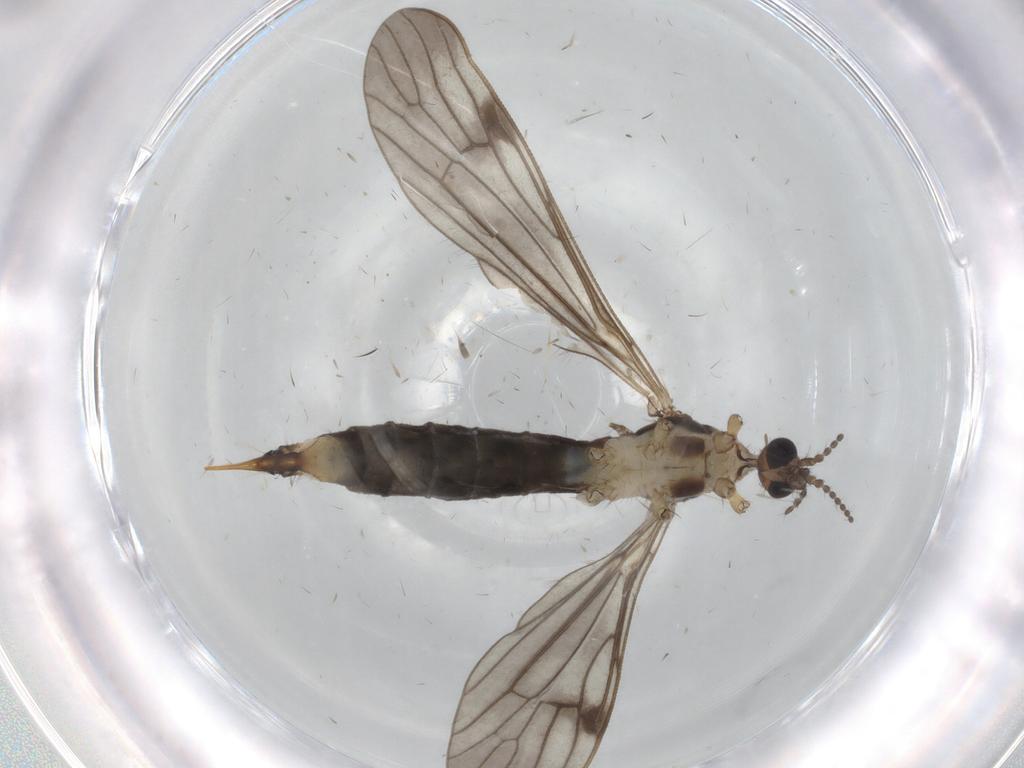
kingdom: Animalia
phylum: Arthropoda
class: Insecta
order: Diptera
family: Limoniidae
